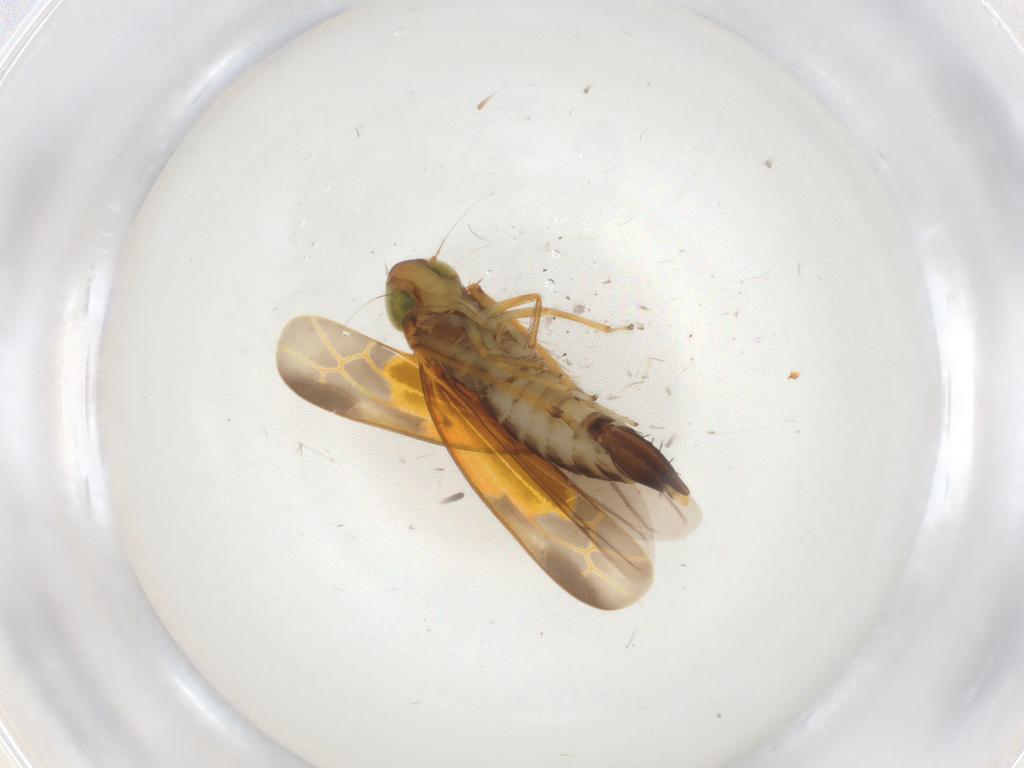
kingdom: Animalia
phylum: Arthropoda
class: Insecta
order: Hemiptera
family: Cicadellidae
